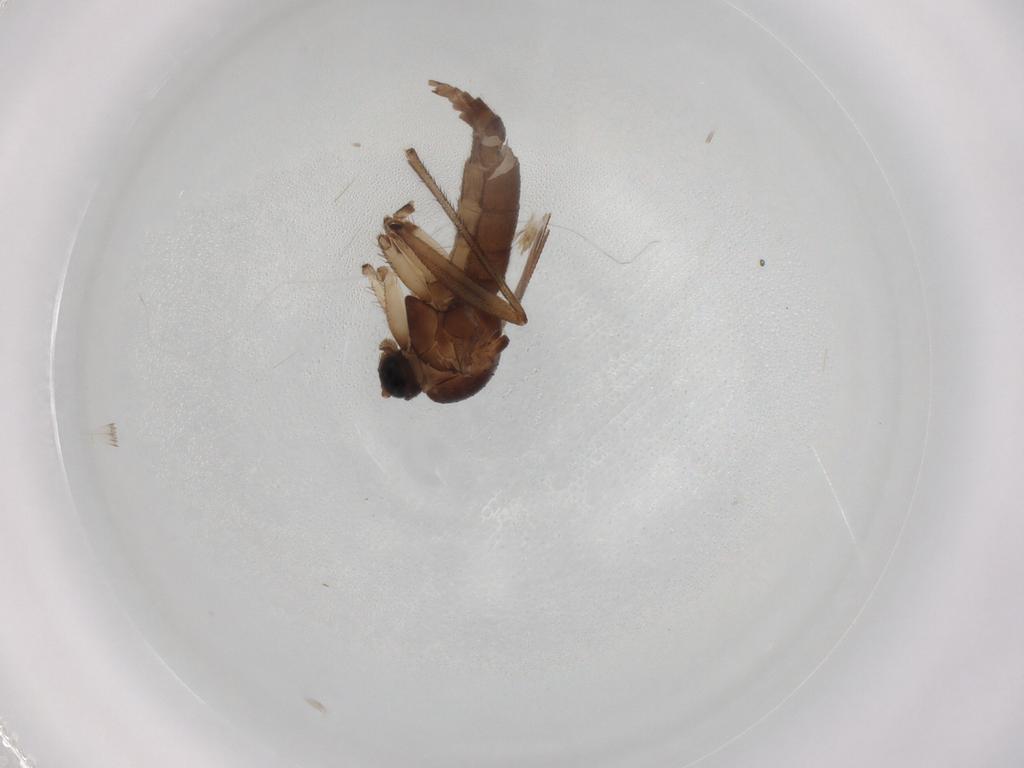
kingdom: Animalia
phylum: Arthropoda
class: Insecta
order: Diptera
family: Sciaridae
